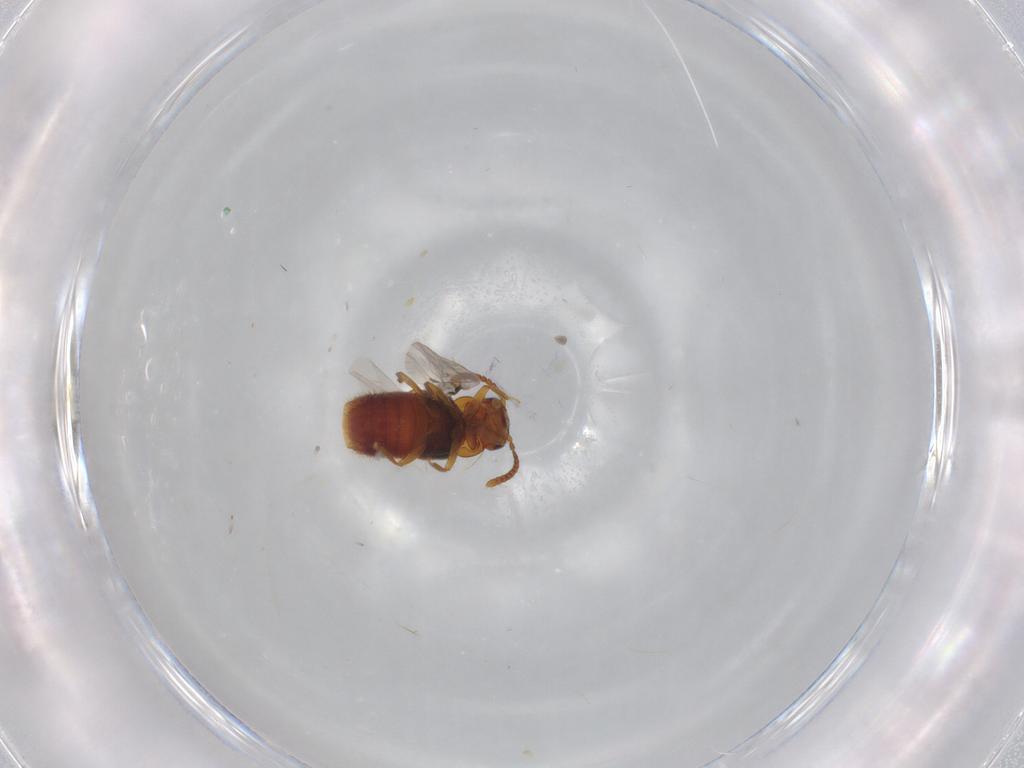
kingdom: Animalia
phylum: Arthropoda
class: Insecta
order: Coleoptera
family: Staphylinidae
